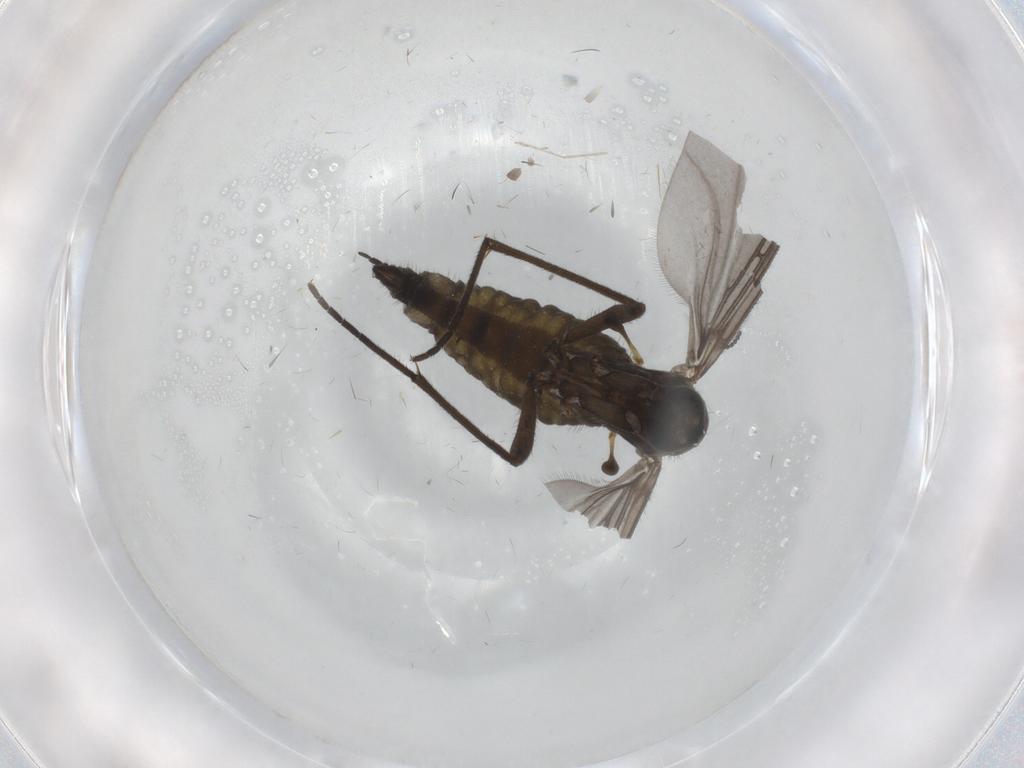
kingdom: Animalia
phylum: Arthropoda
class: Insecta
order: Diptera
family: Sciaridae
